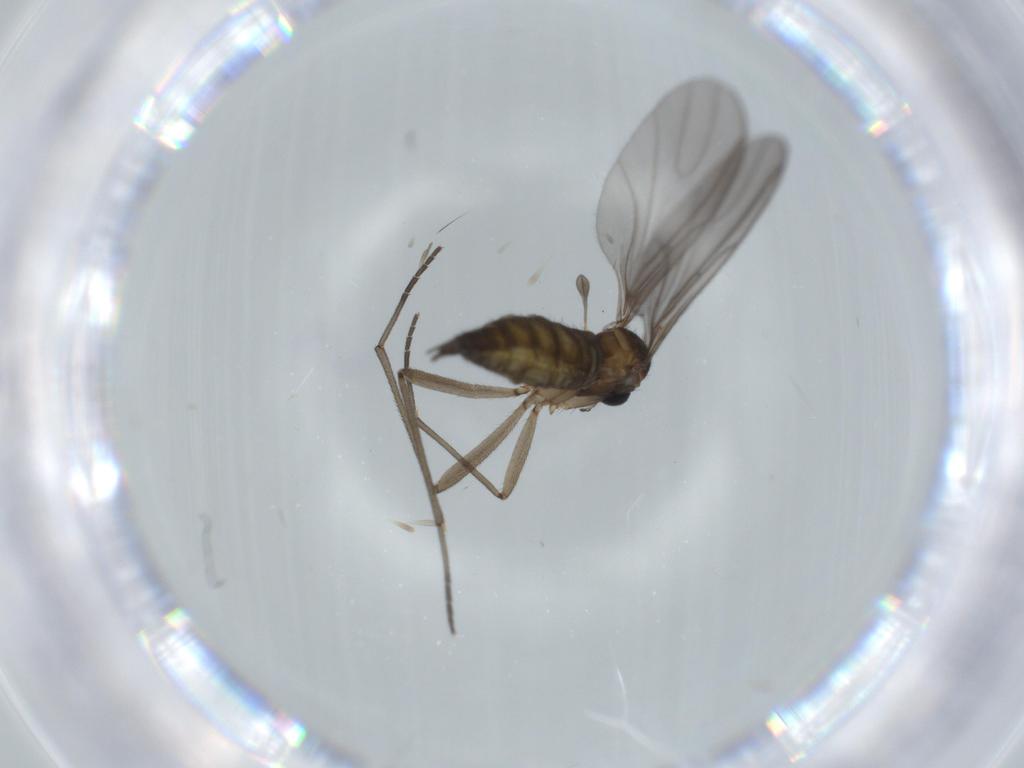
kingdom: Animalia
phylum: Arthropoda
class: Insecta
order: Diptera
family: Sciaridae
